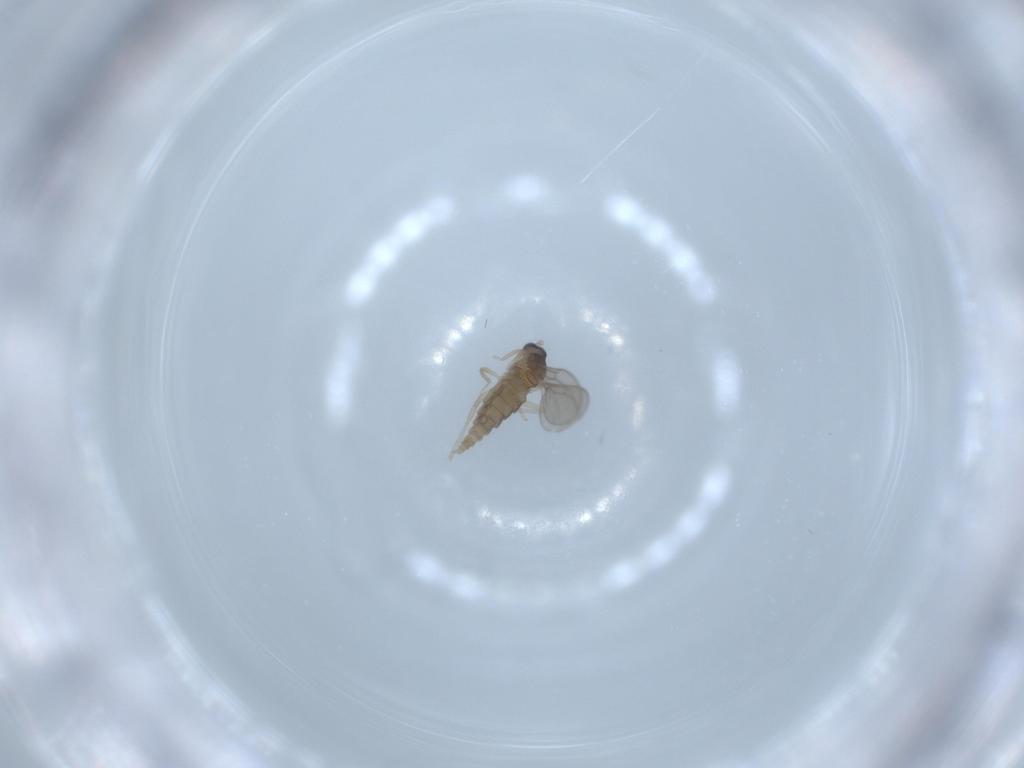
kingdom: Animalia
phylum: Arthropoda
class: Insecta
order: Diptera
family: Cecidomyiidae
